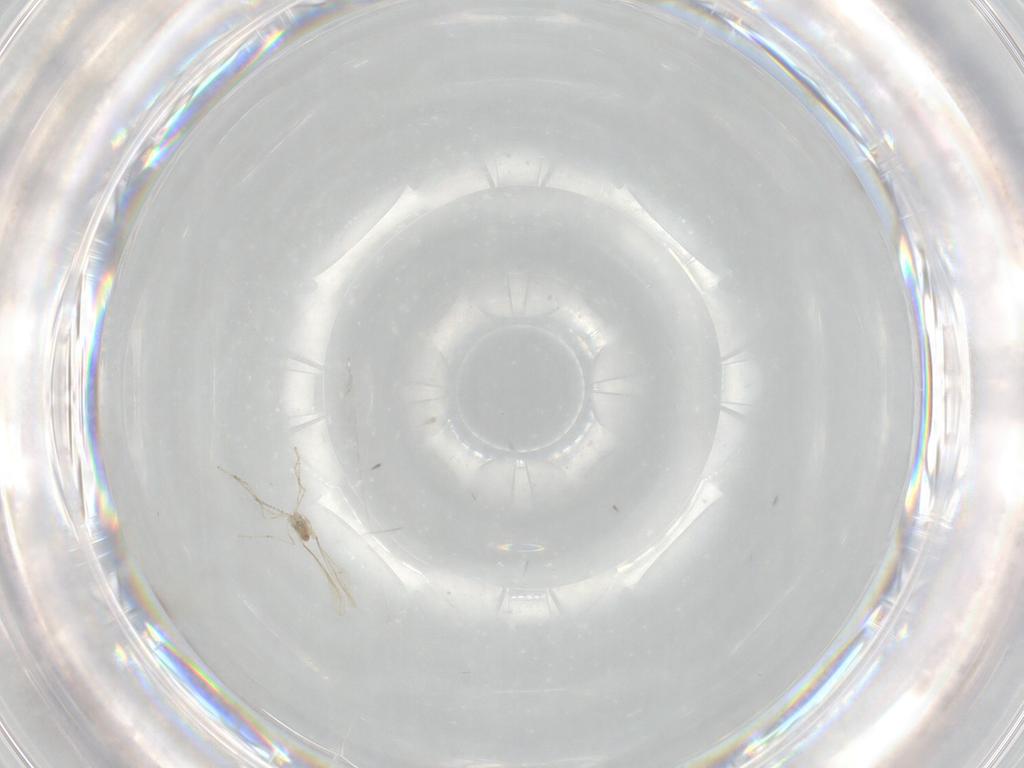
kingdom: Animalia
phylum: Arthropoda
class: Insecta
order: Diptera
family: Cecidomyiidae
